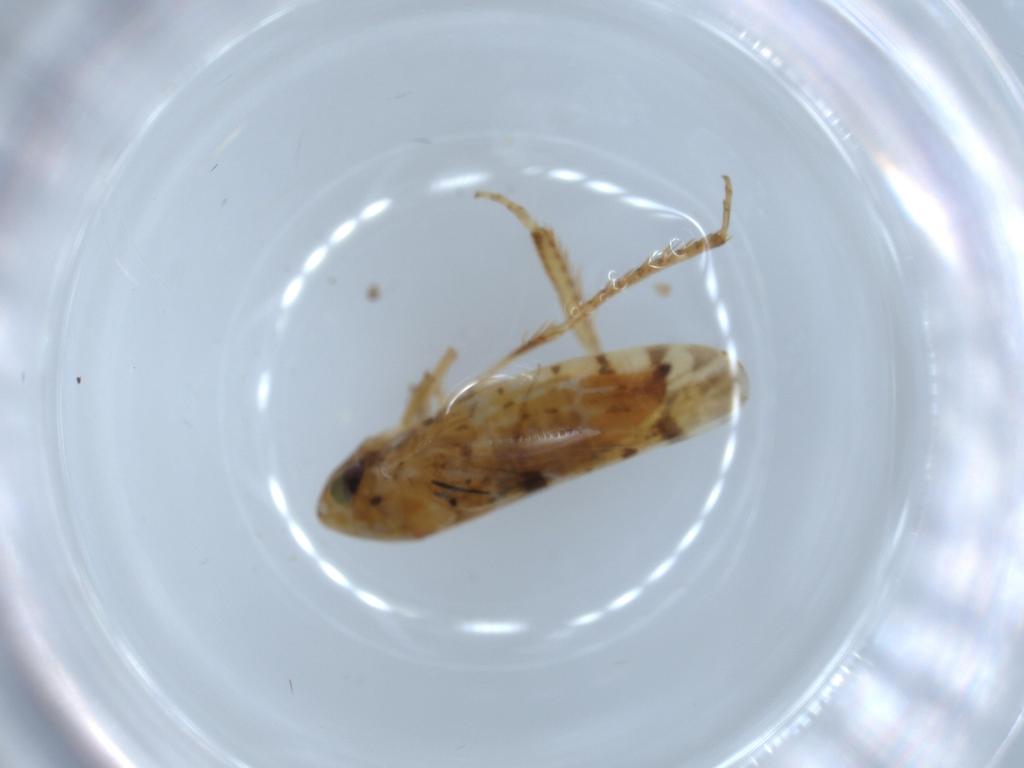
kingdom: Animalia
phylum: Arthropoda
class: Insecta
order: Hemiptera
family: Cicadellidae
